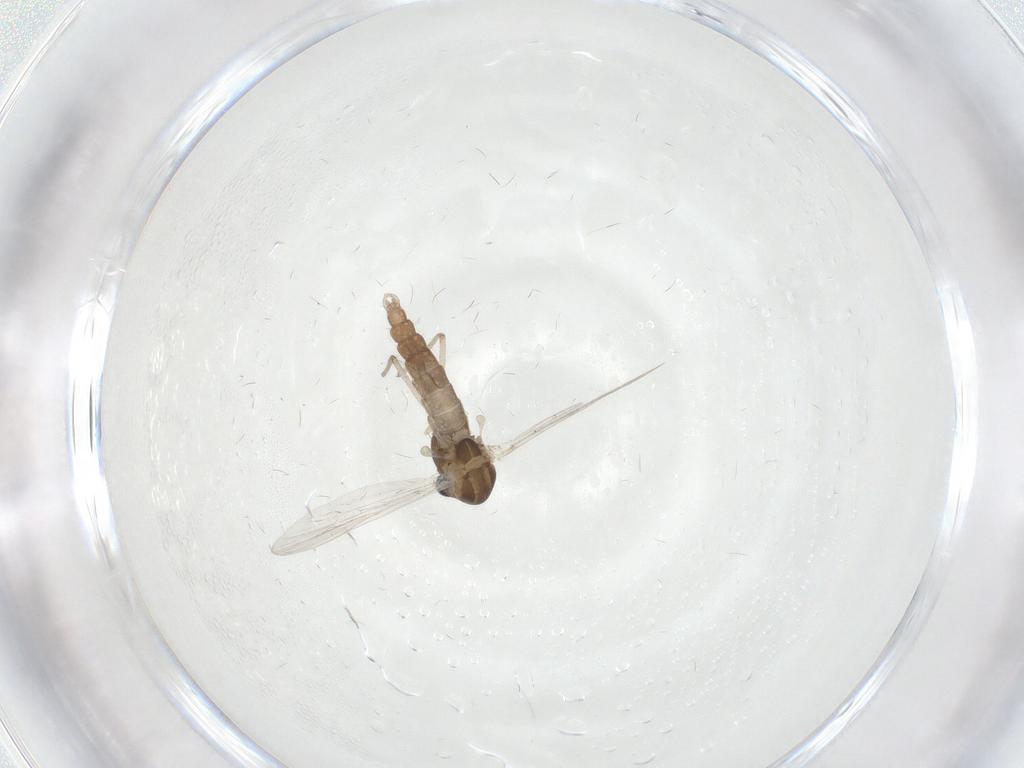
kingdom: Animalia
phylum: Arthropoda
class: Insecta
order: Diptera
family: Chironomidae
